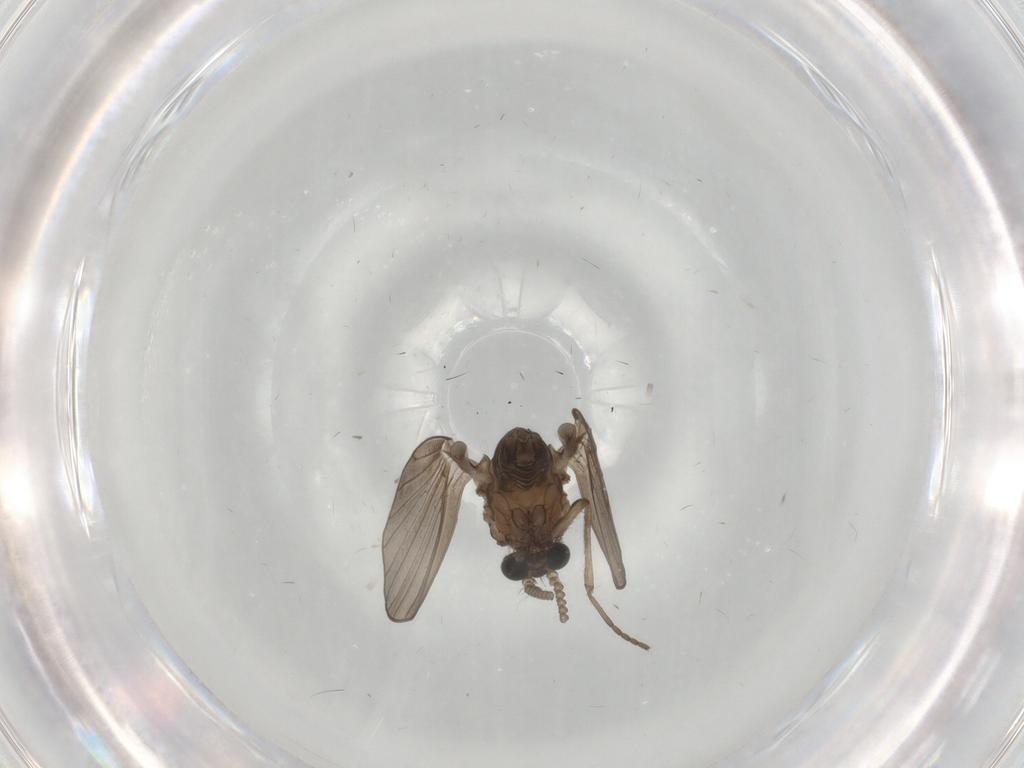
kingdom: Animalia
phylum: Arthropoda
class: Insecta
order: Diptera
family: Psychodidae
